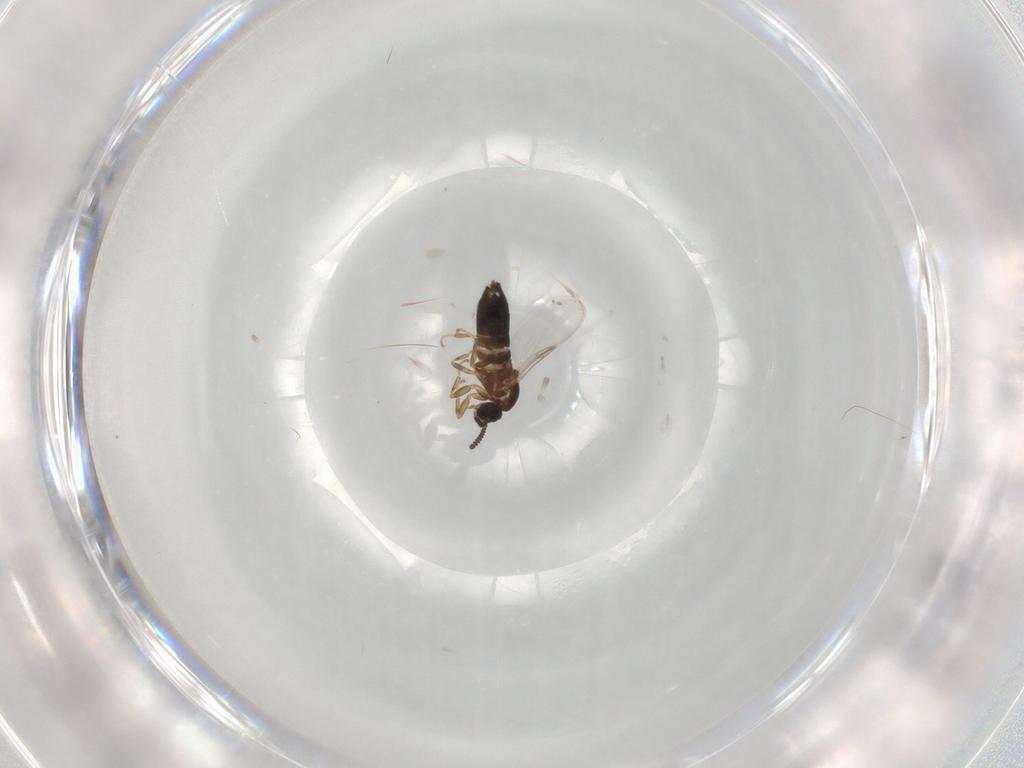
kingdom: Animalia
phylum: Arthropoda
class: Insecta
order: Diptera
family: Scatopsidae
